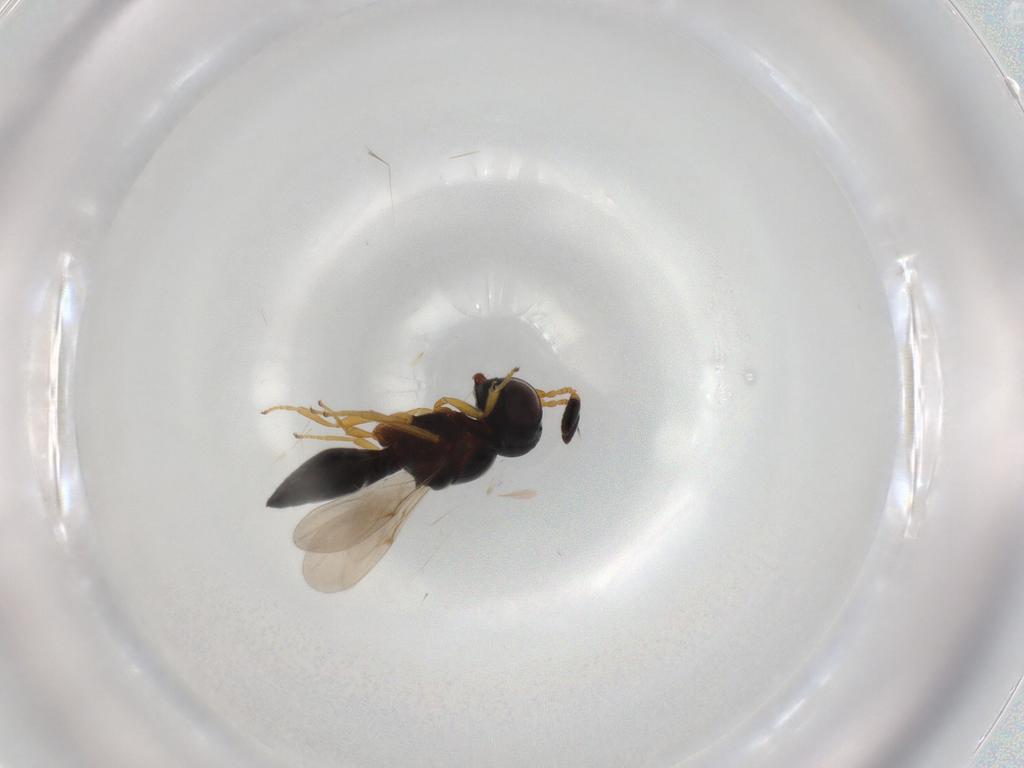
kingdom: Animalia
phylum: Arthropoda
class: Insecta
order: Hymenoptera
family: Scelionidae
